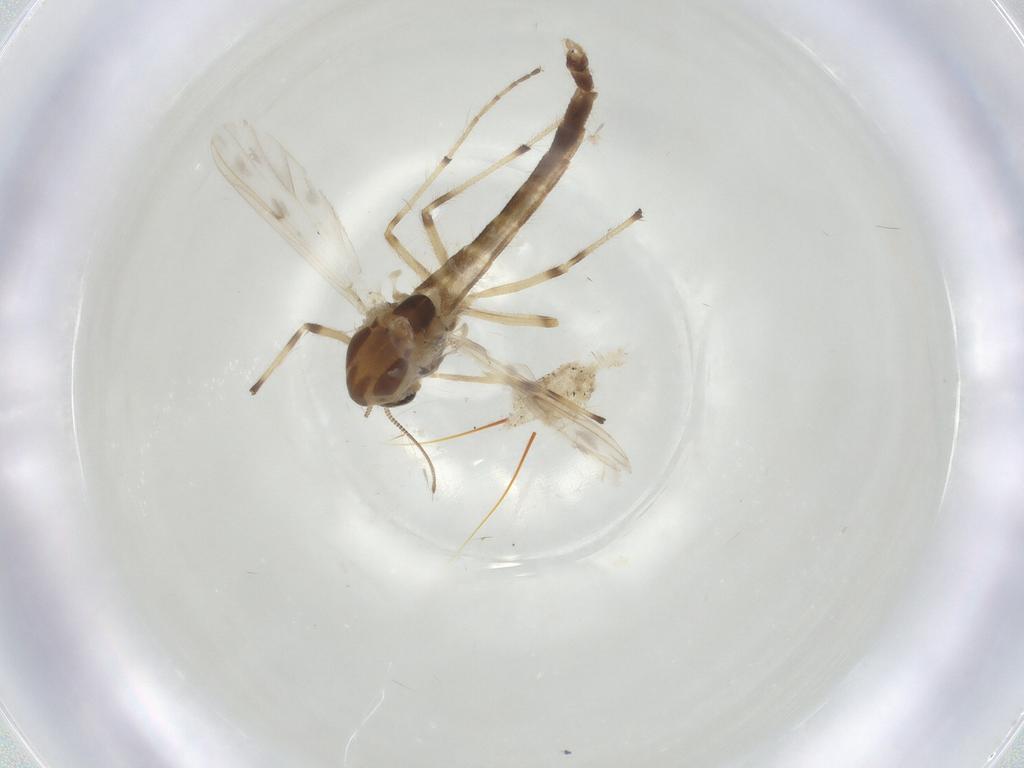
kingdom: Animalia
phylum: Arthropoda
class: Insecta
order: Diptera
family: Chironomidae
